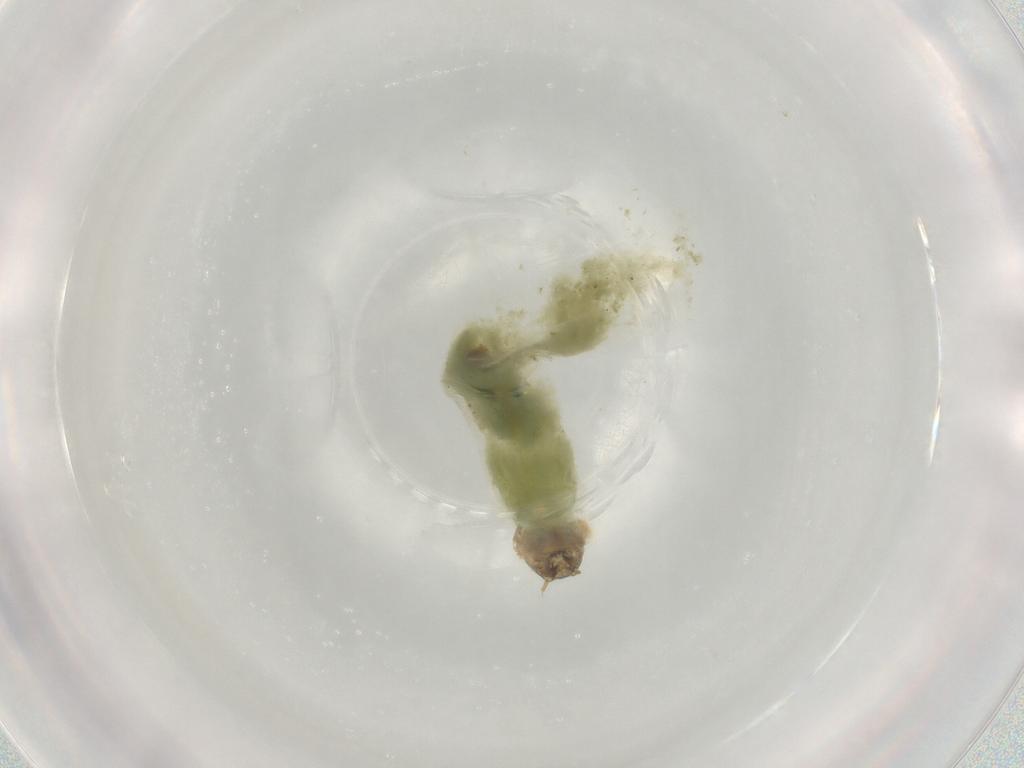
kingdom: Animalia
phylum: Arthropoda
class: Insecta
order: Diptera
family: Chironomidae
